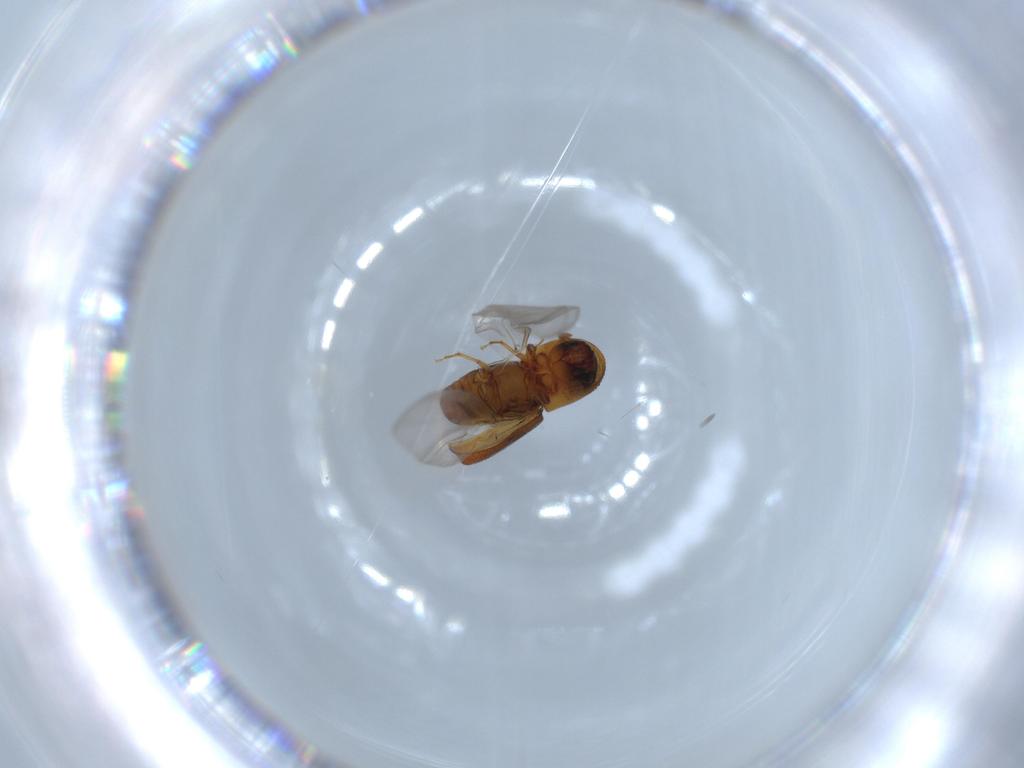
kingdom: Animalia
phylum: Arthropoda
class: Insecta
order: Coleoptera
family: Curculionidae
